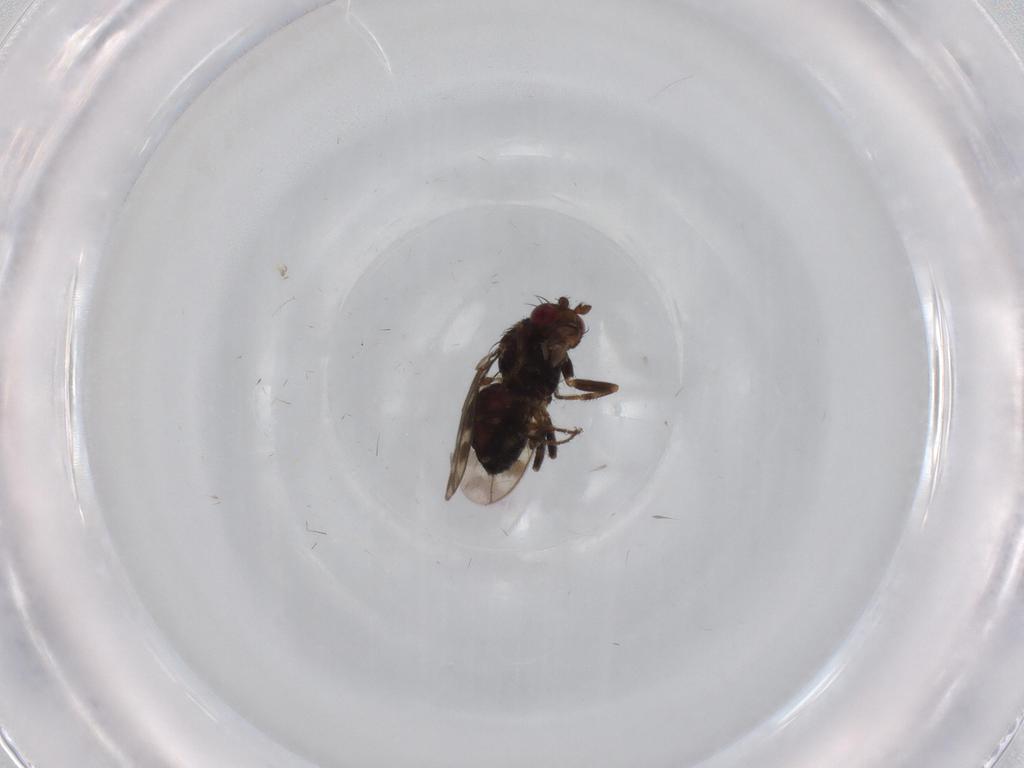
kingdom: Animalia
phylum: Arthropoda
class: Insecta
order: Diptera
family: Sphaeroceridae
